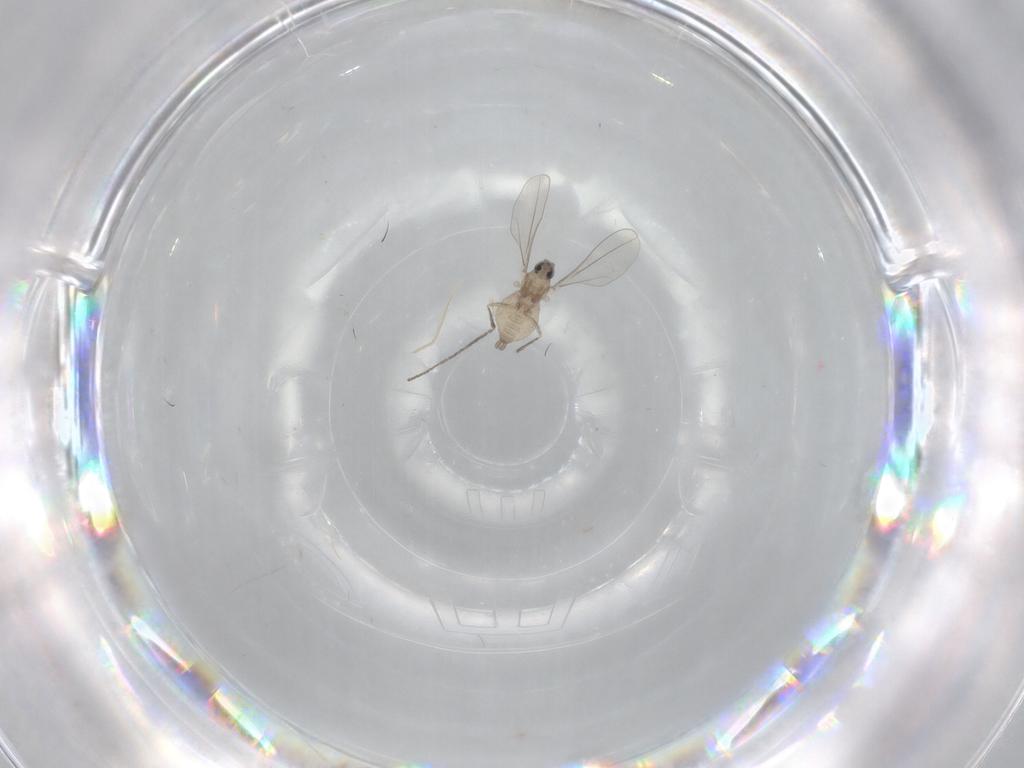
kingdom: Animalia
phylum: Arthropoda
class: Insecta
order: Diptera
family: Cecidomyiidae
